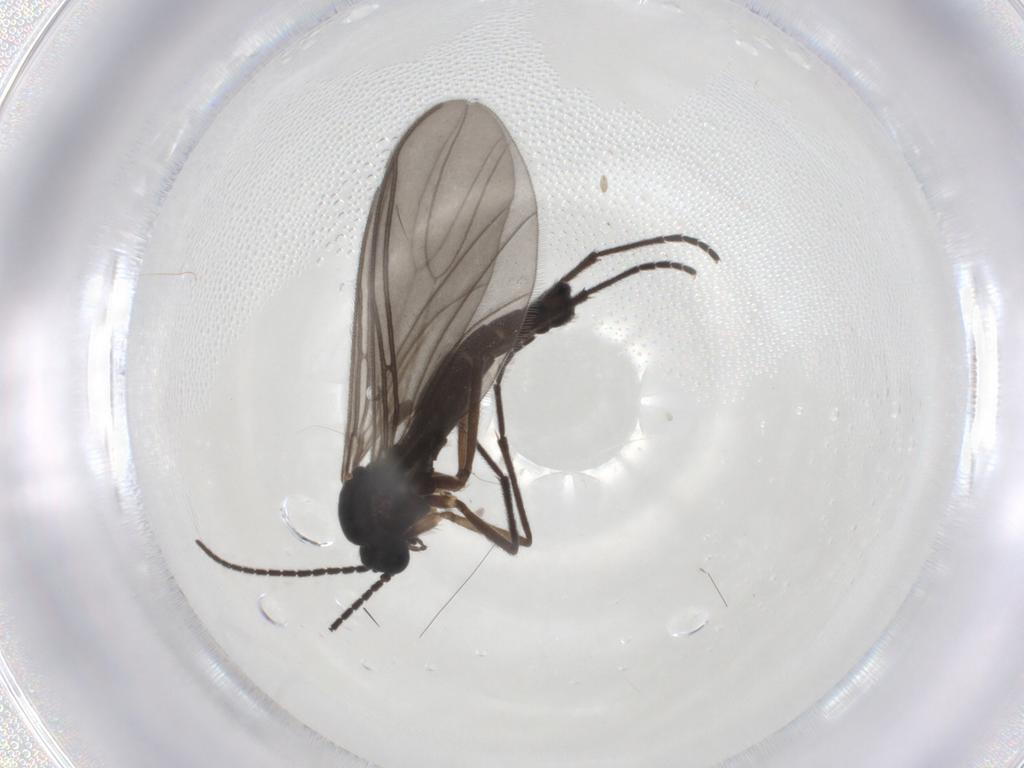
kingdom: Animalia
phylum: Arthropoda
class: Insecta
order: Diptera
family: Sciaridae
